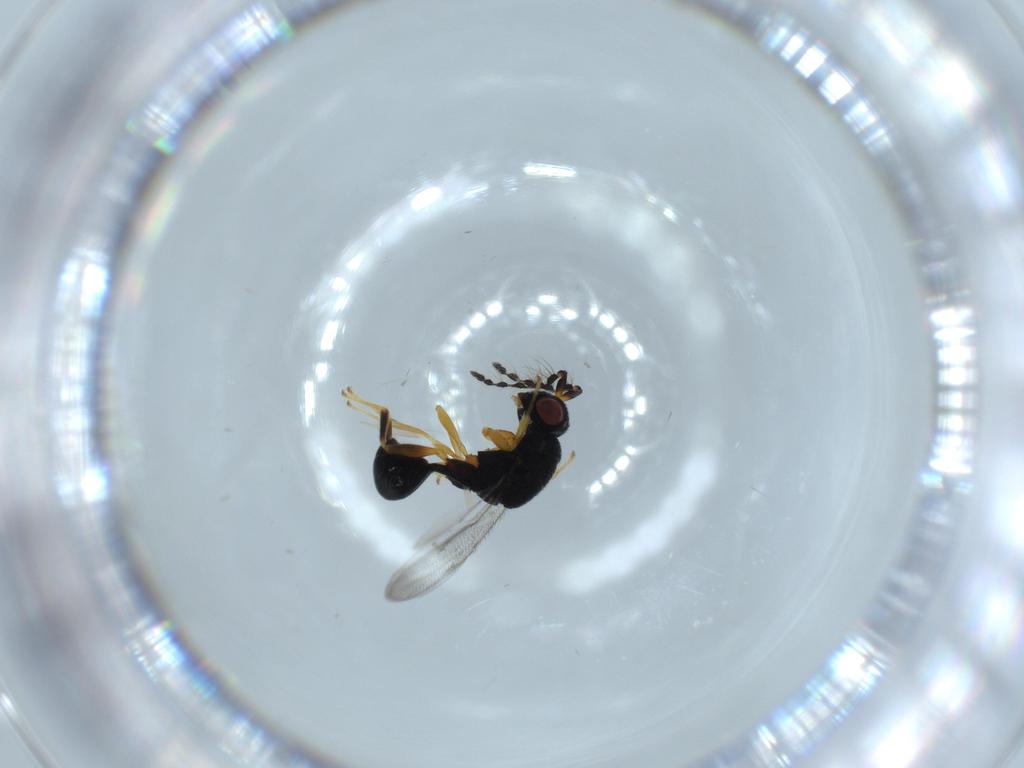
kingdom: Animalia
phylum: Arthropoda
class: Insecta
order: Hymenoptera
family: Eurytomidae
